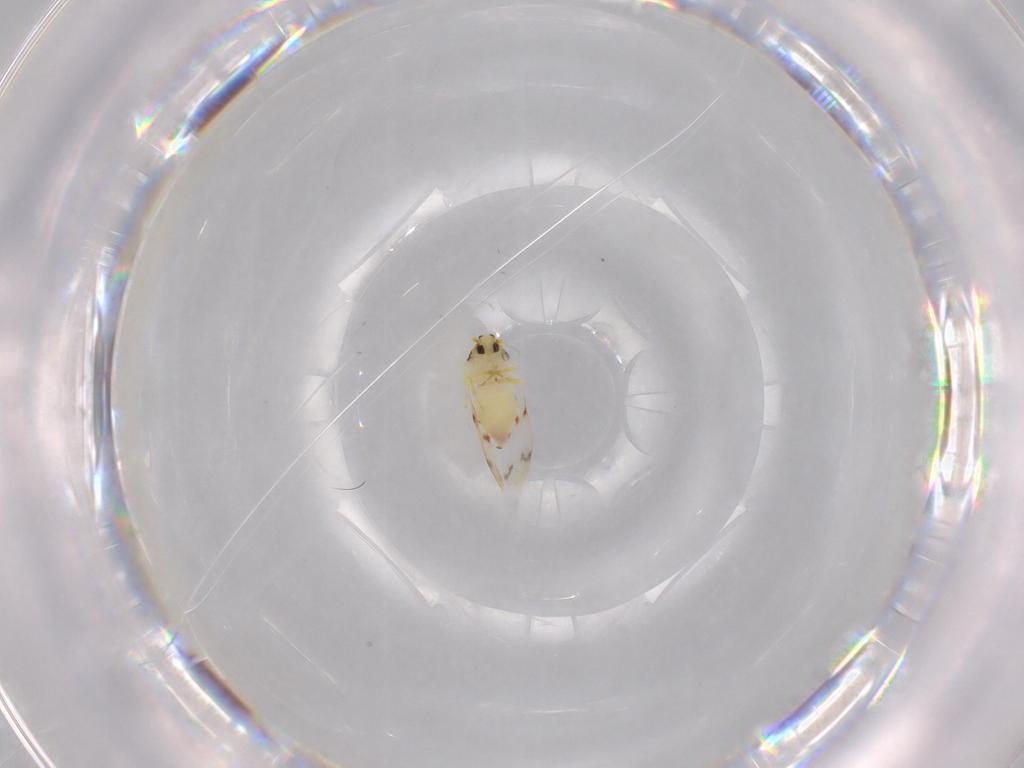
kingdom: Animalia
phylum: Arthropoda
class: Insecta
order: Hemiptera
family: Aleyrodidae
